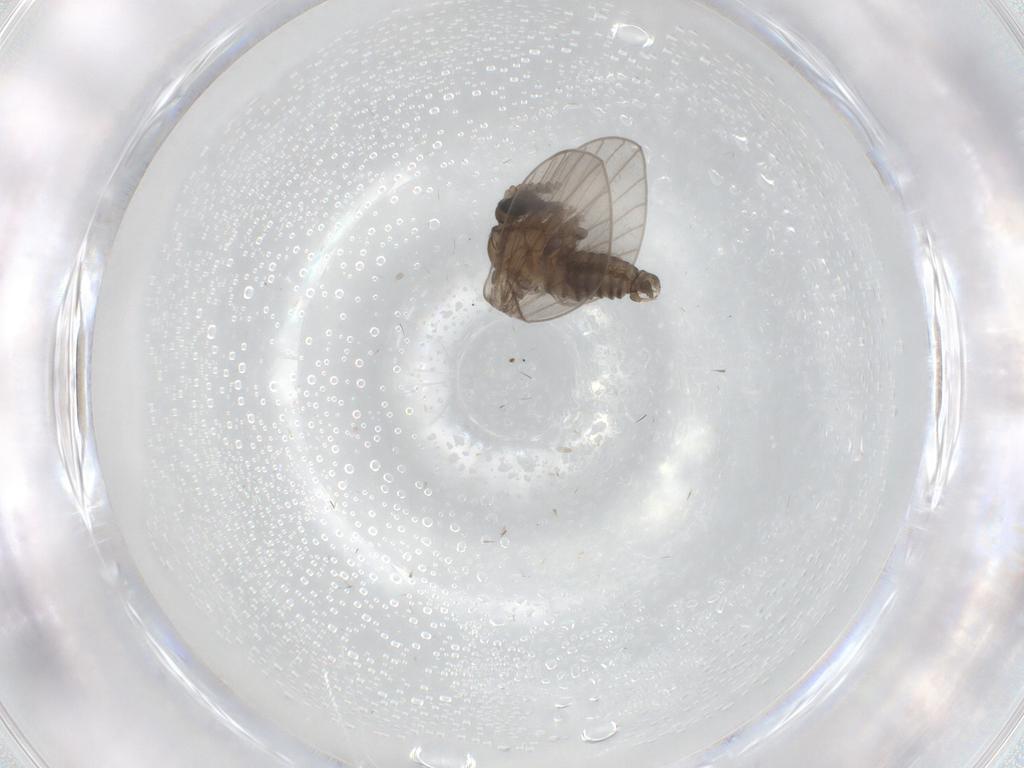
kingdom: Animalia
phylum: Arthropoda
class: Insecta
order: Diptera
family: Psychodidae
